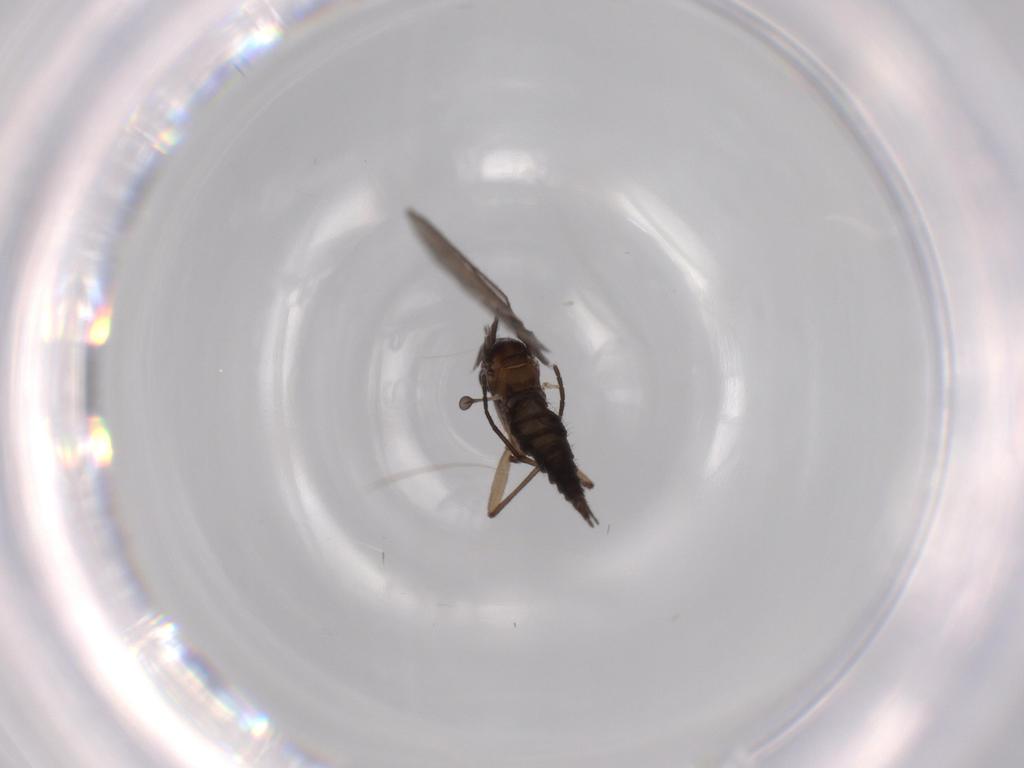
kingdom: Animalia
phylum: Arthropoda
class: Insecta
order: Diptera
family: Sciaridae
